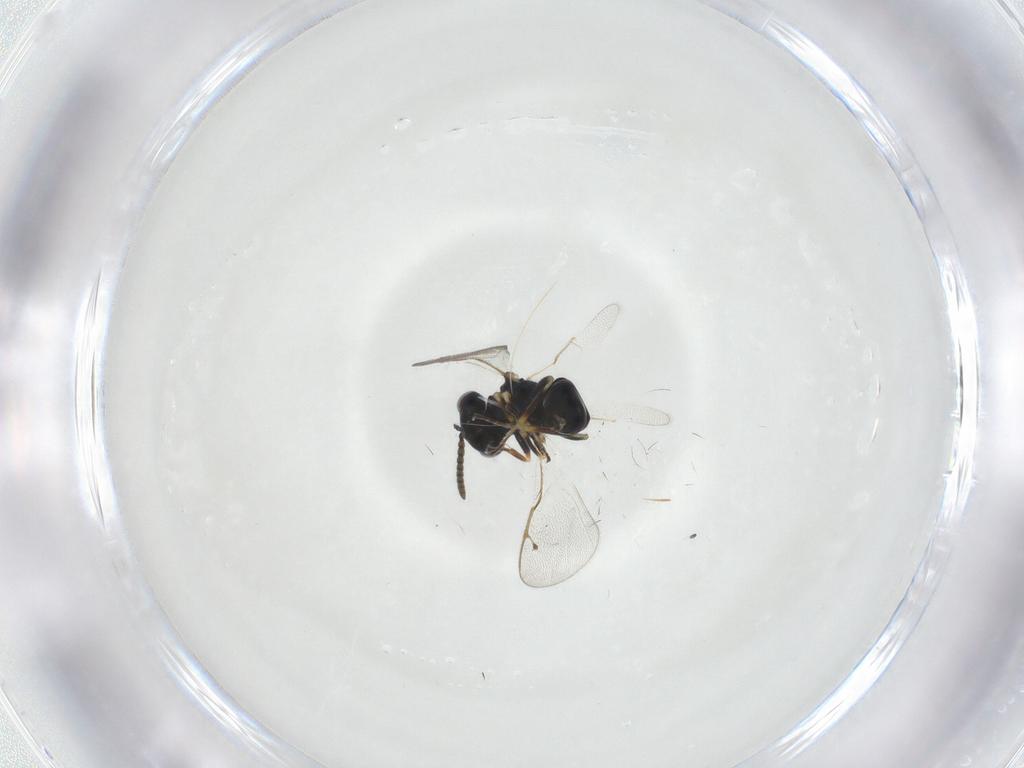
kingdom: Animalia
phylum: Arthropoda
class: Insecta
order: Hymenoptera
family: Pteromalidae
